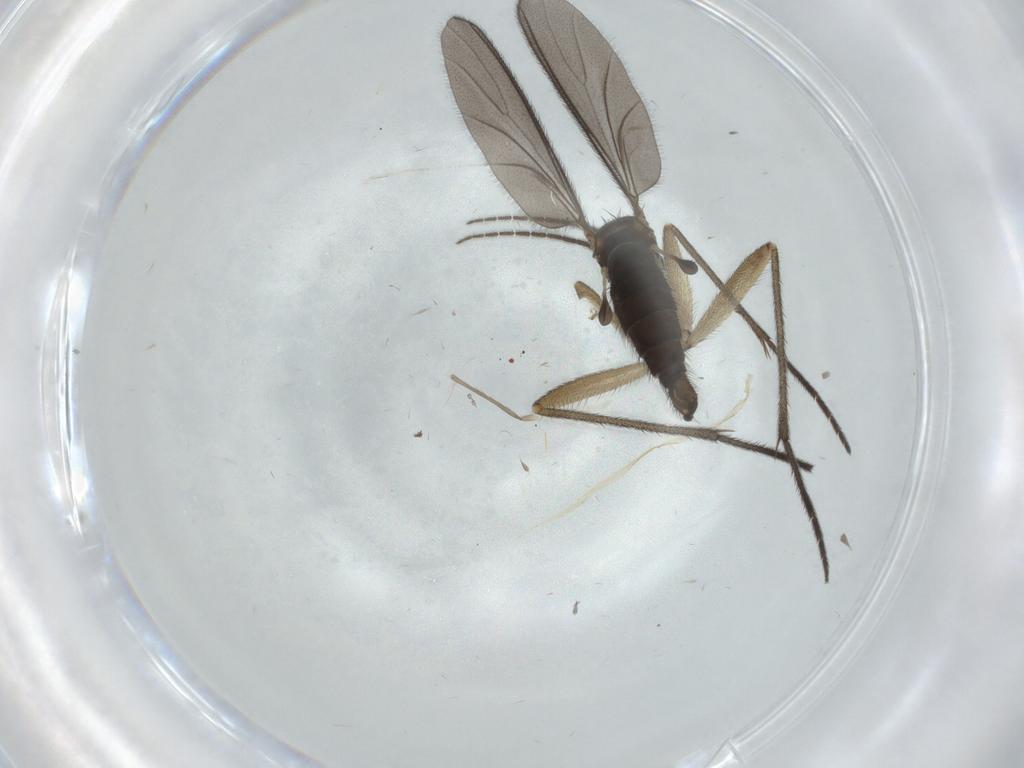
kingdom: Animalia
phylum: Arthropoda
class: Insecta
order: Diptera
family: Sciaridae
